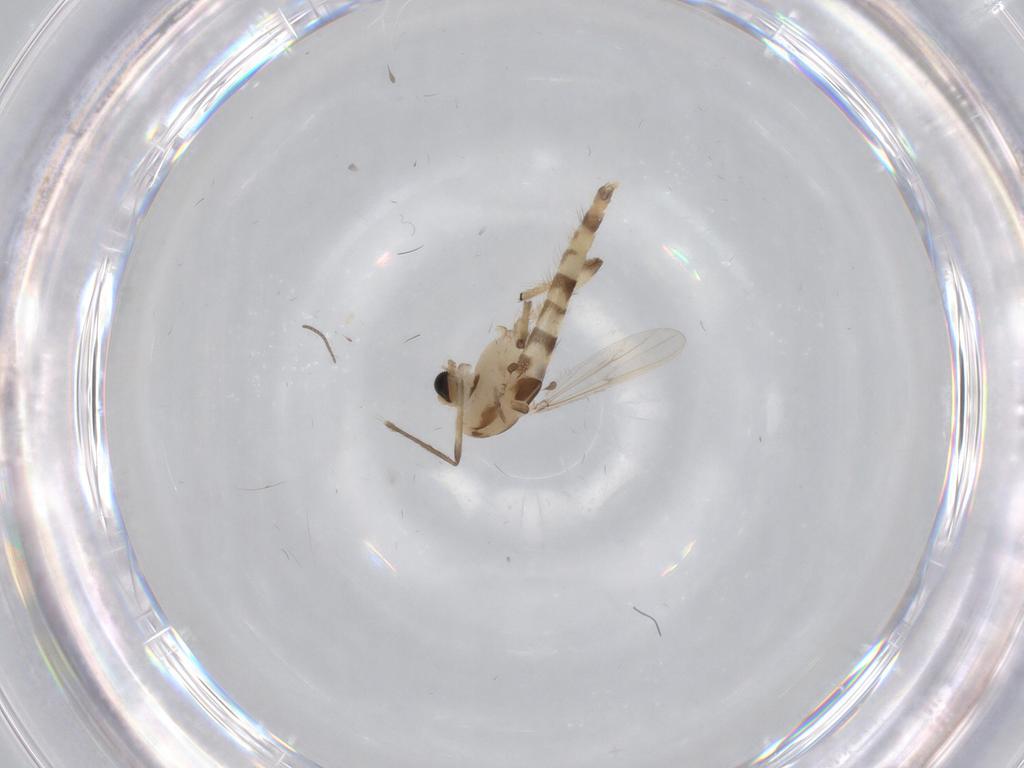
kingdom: Animalia
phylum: Arthropoda
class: Insecta
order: Diptera
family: Chironomidae
